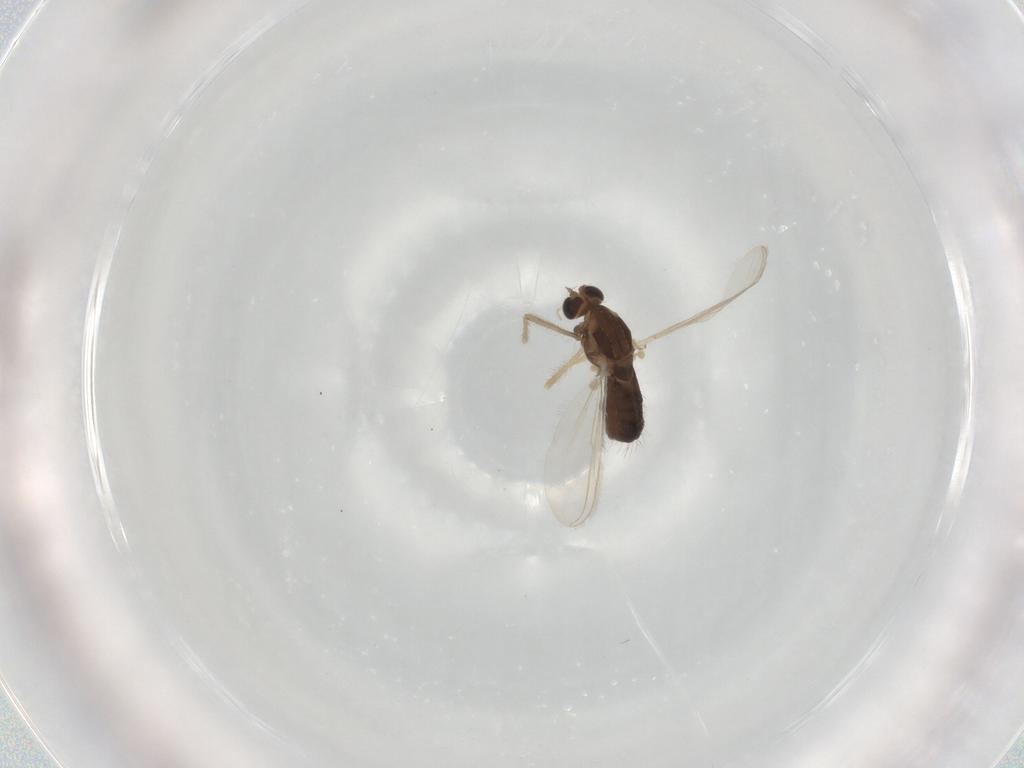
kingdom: Animalia
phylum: Arthropoda
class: Insecta
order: Diptera
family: Chironomidae
